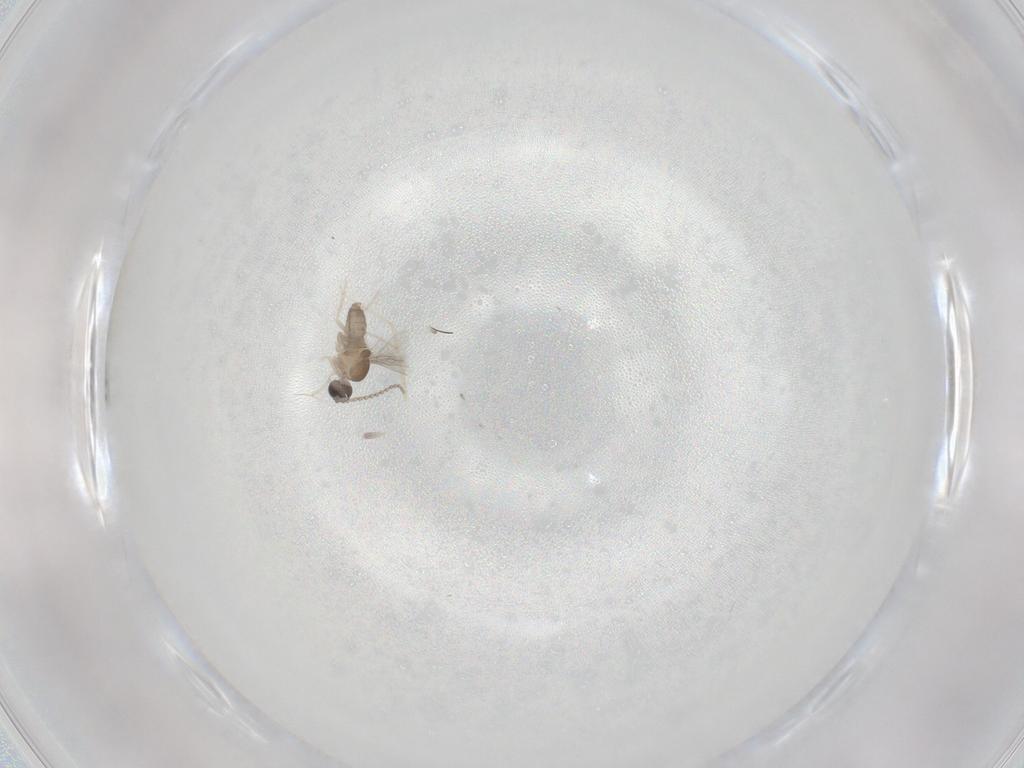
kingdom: Animalia
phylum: Arthropoda
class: Insecta
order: Diptera
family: Cecidomyiidae
